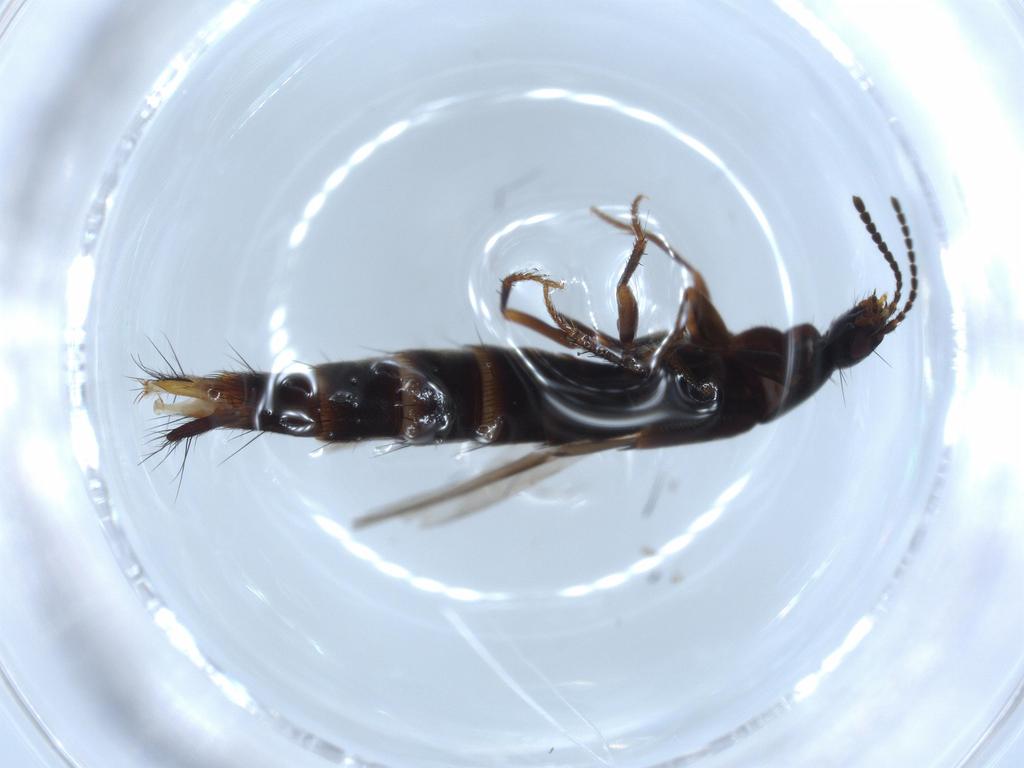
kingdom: Animalia
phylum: Arthropoda
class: Insecta
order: Coleoptera
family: Staphylinidae
